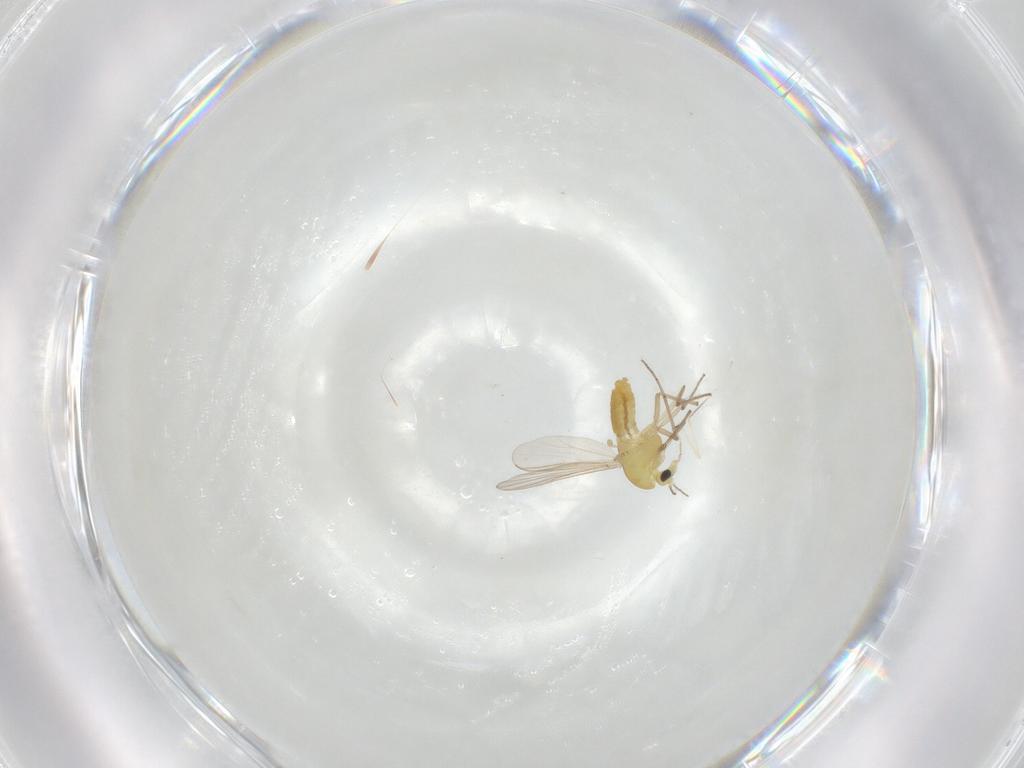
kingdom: Animalia
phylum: Arthropoda
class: Insecta
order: Diptera
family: Chironomidae
